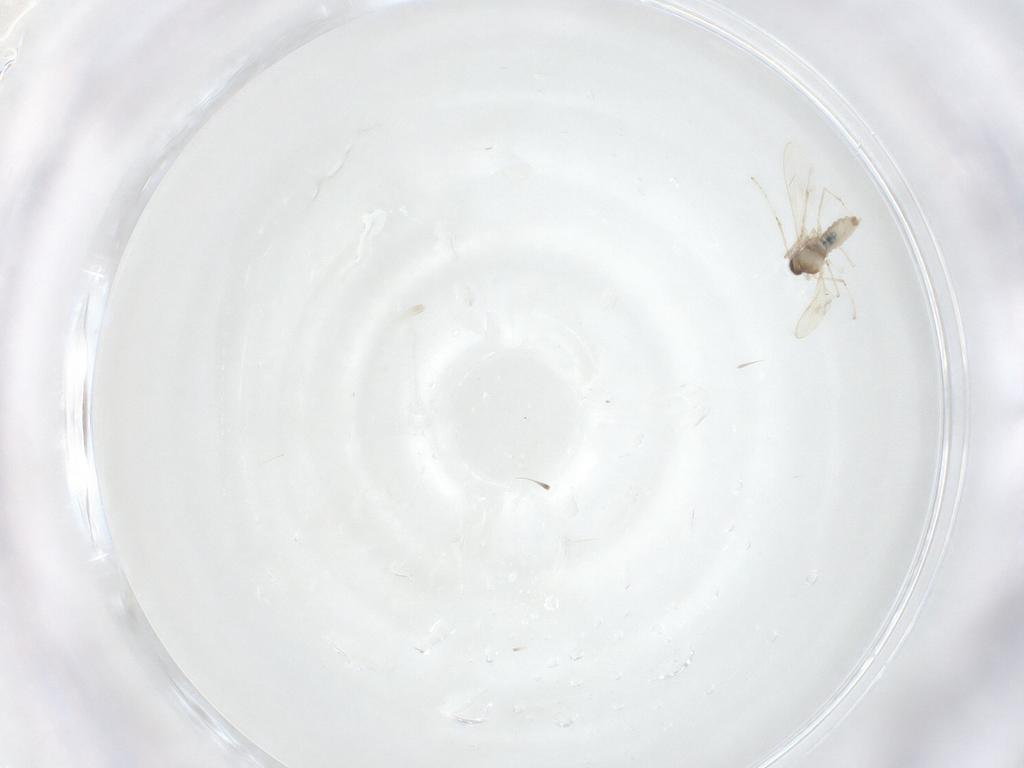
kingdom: Animalia
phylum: Arthropoda
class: Insecta
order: Diptera
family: Cecidomyiidae
